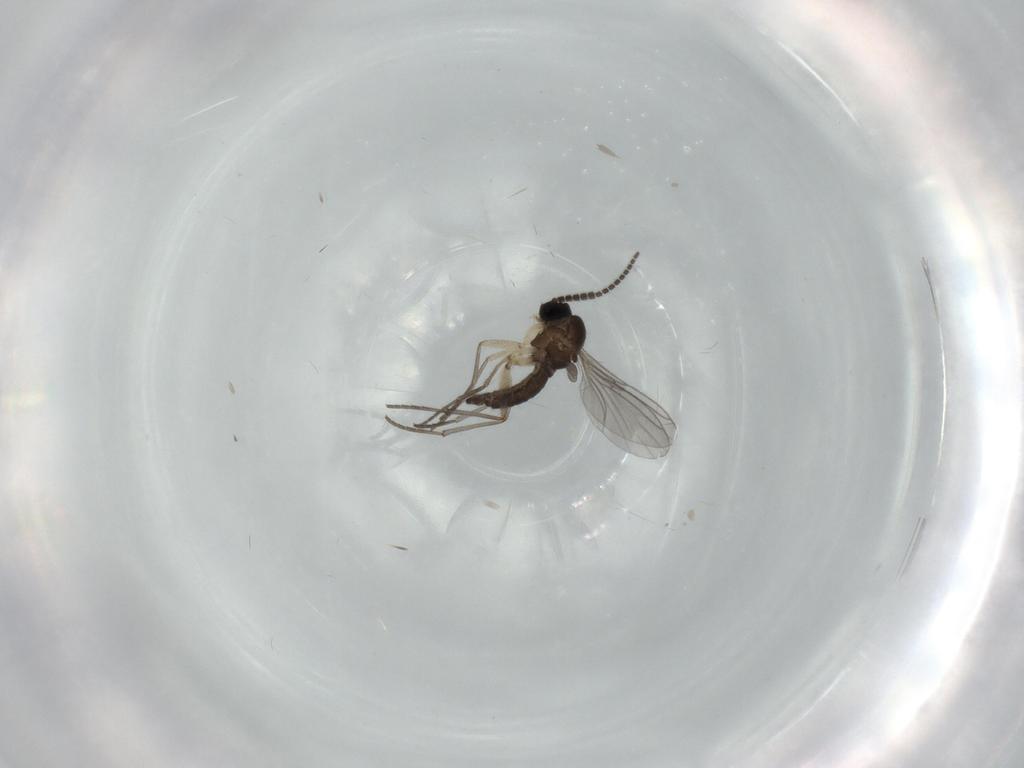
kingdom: Animalia
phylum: Arthropoda
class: Insecta
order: Diptera
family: Sciaridae
